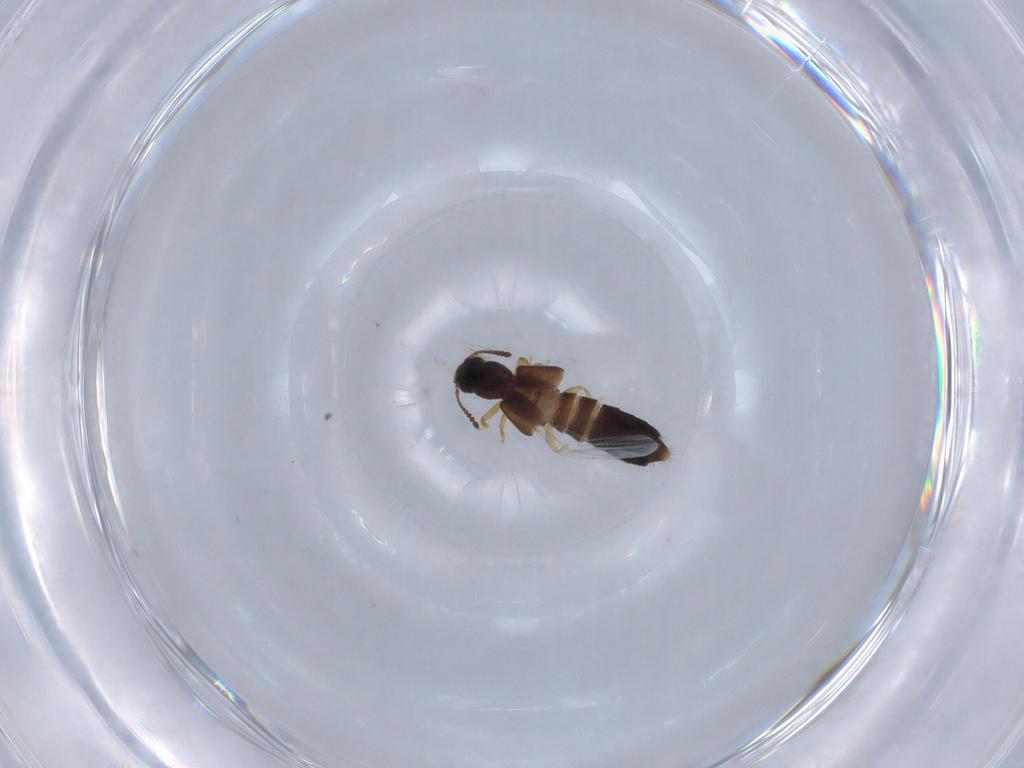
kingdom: Animalia
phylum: Arthropoda
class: Insecta
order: Coleoptera
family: Staphylinidae
